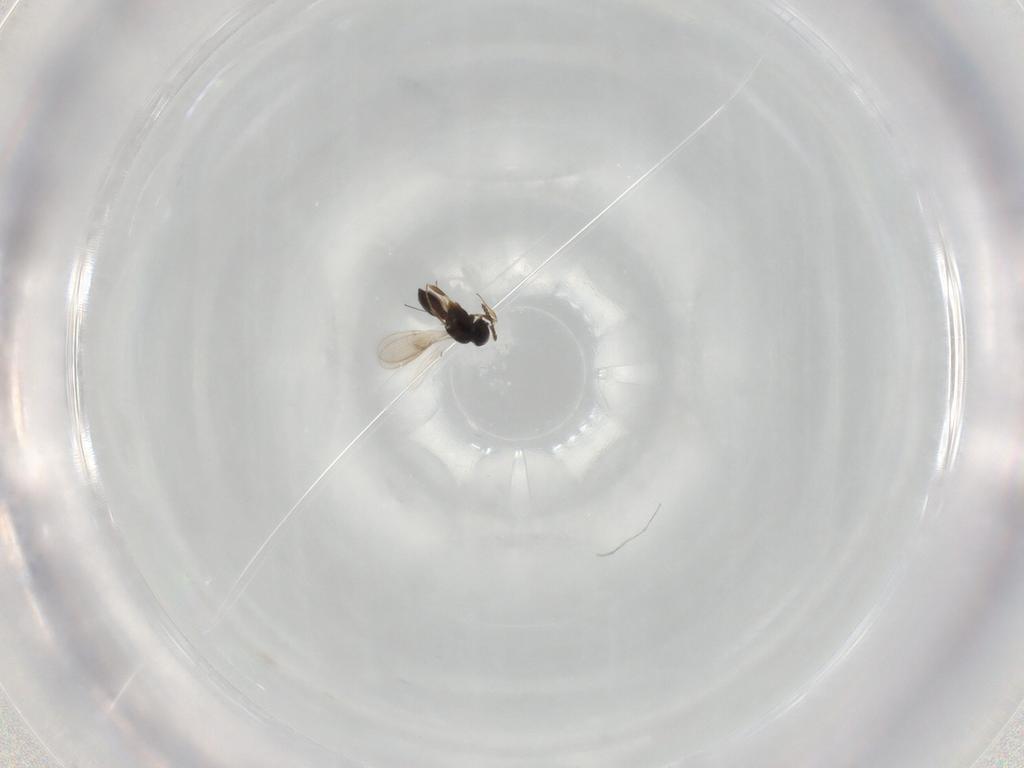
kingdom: Animalia
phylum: Arthropoda
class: Insecta
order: Hymenoptera
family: Scelionidae
